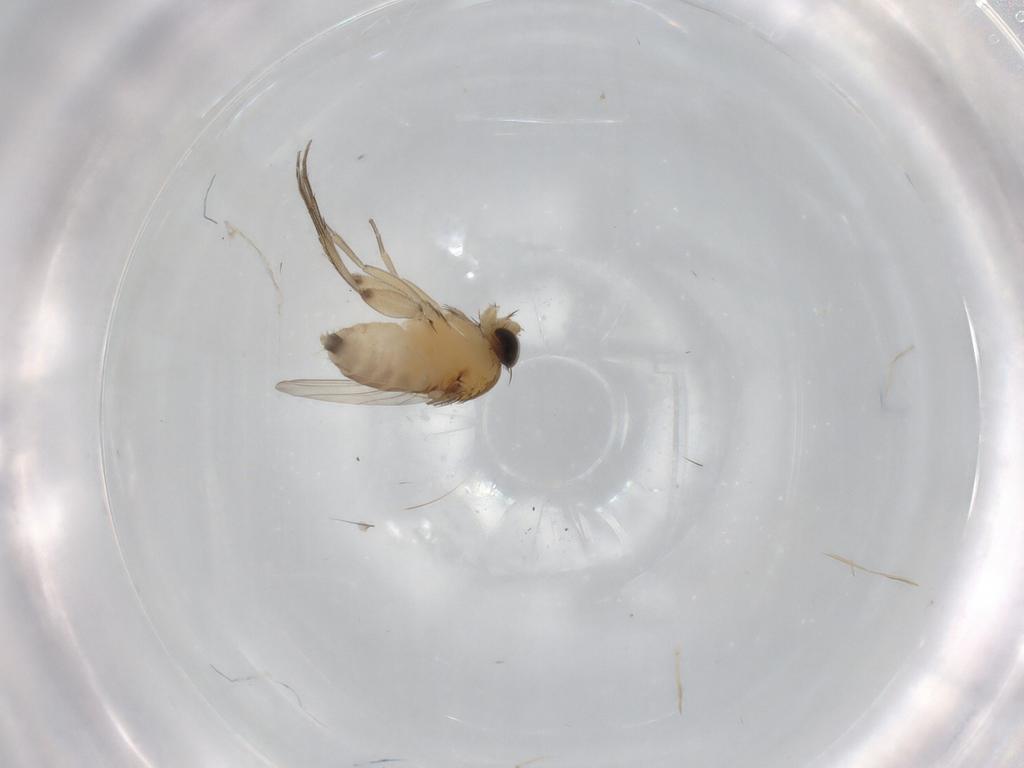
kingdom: Animalia
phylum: Arthropoda
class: Insecta
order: Diptera
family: Phoridae
